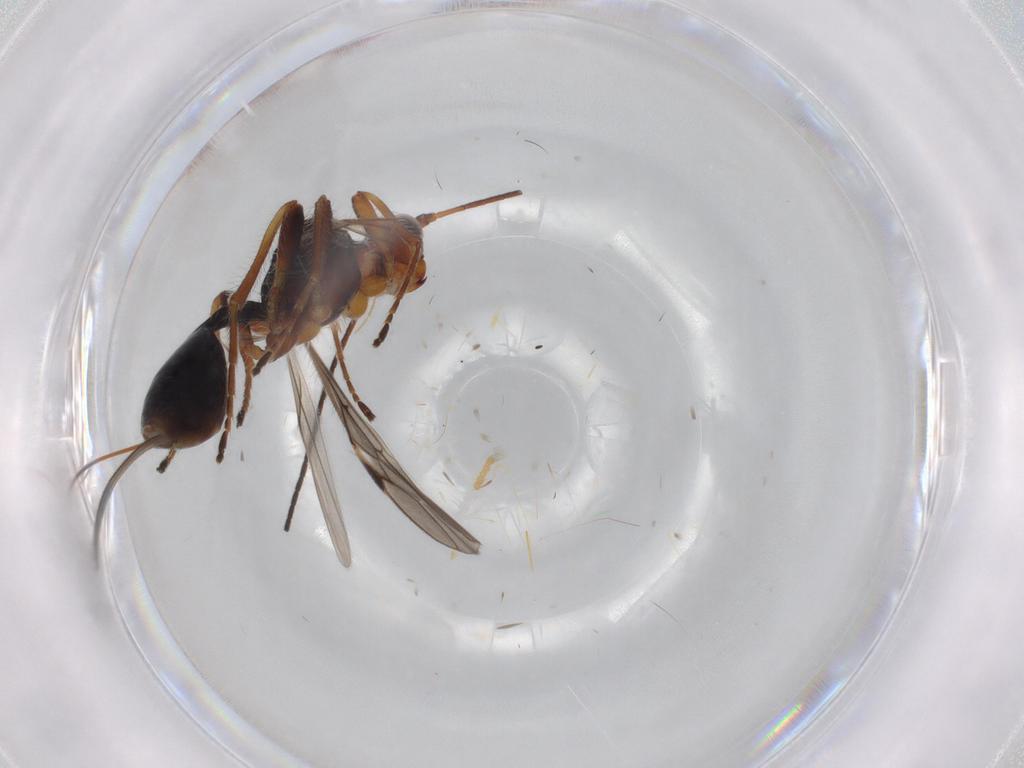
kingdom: Animalia
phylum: Arthropoda
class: Insecta
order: Hymenoptera
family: Braconidae
